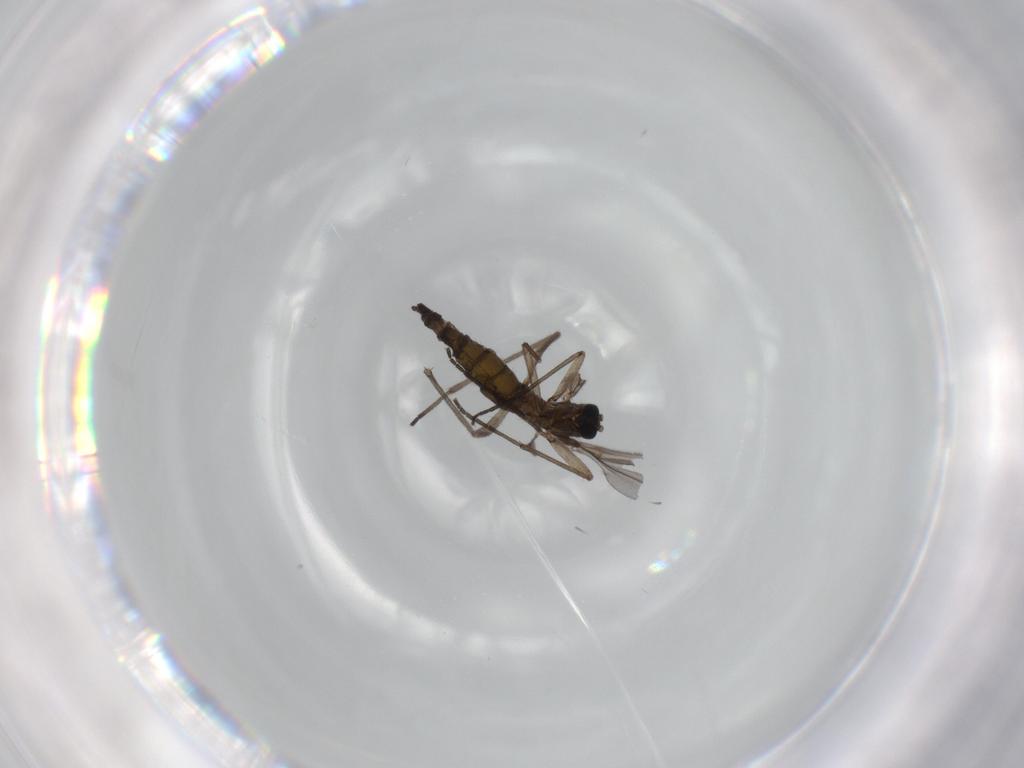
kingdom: Animalia
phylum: Arthropoda
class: Insecta
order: Diptera
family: Sciaridae
